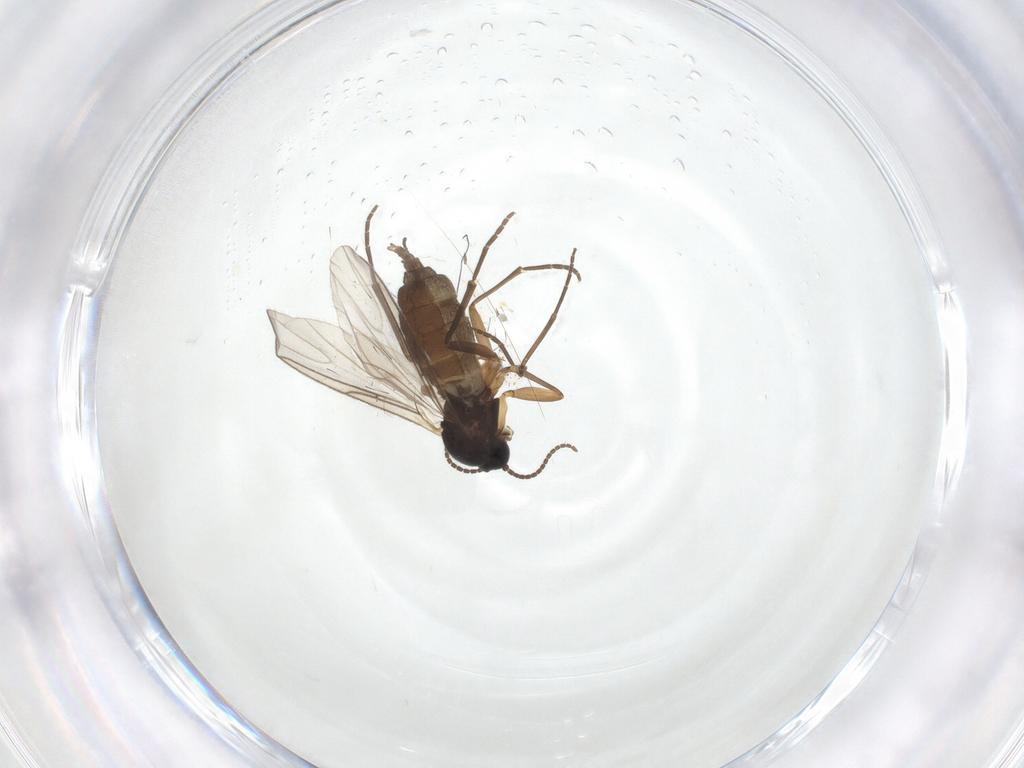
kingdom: Animalia
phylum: Arthropoda
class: Insecta
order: Diptera
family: Sciaridae
